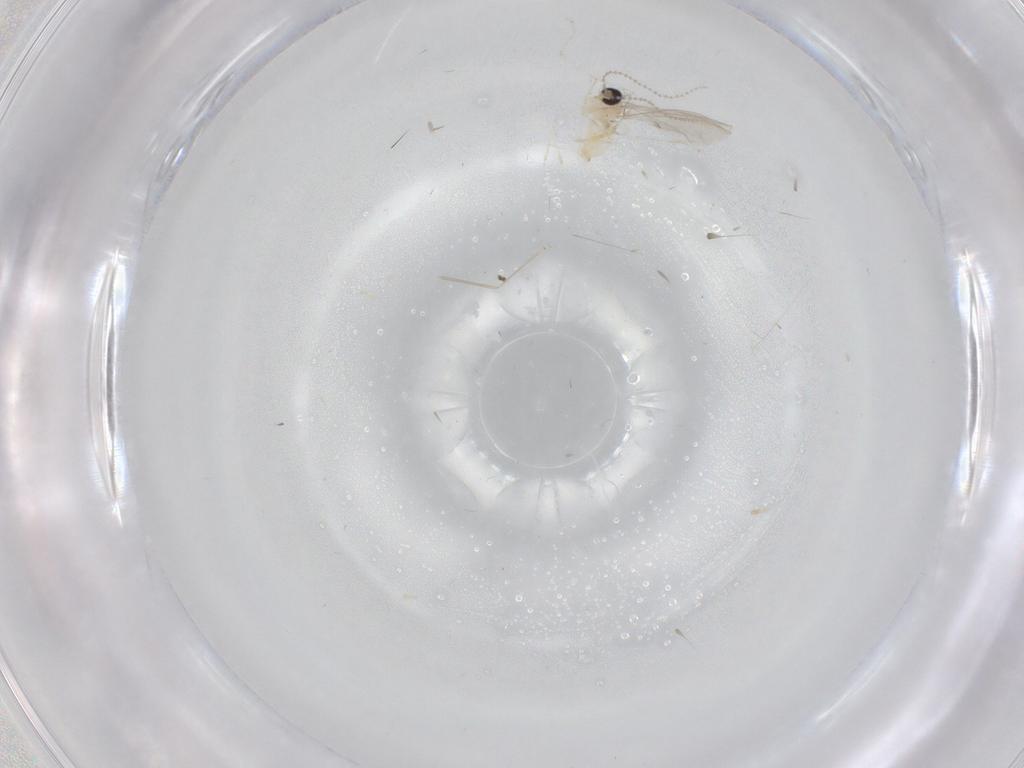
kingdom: Animalia
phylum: Arthropoda
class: Insecta
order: Diptera
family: Cecidomyiidae
